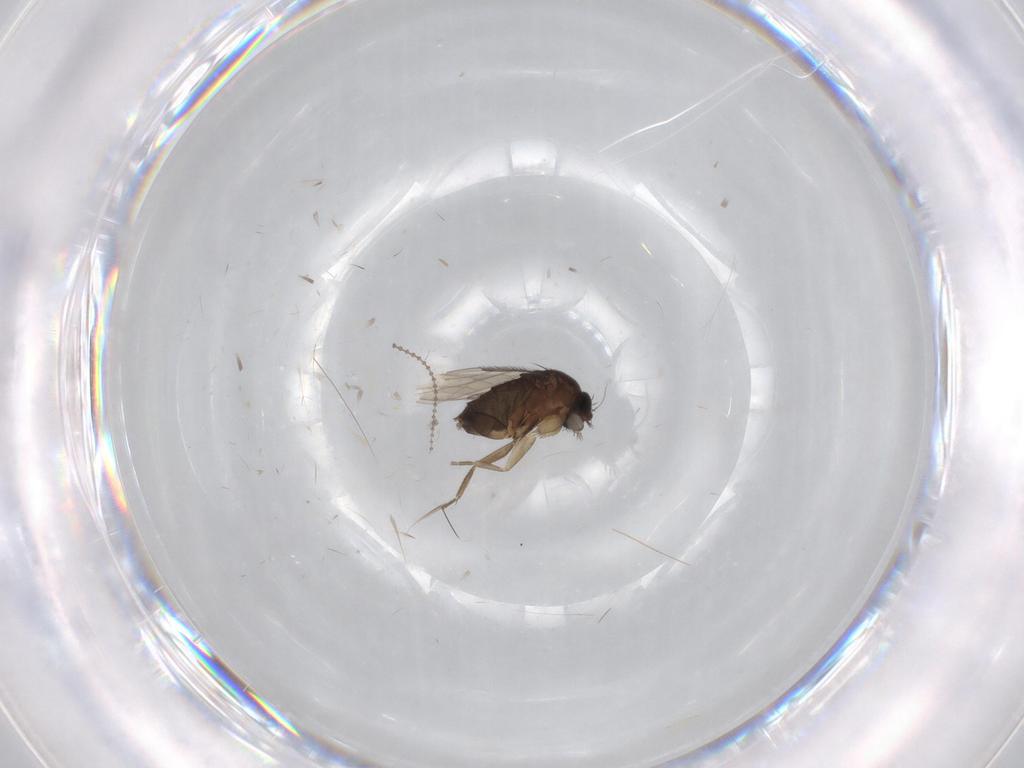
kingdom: Animalia
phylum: Arthropoda
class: Insecta
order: Diptera
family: Phoridae
